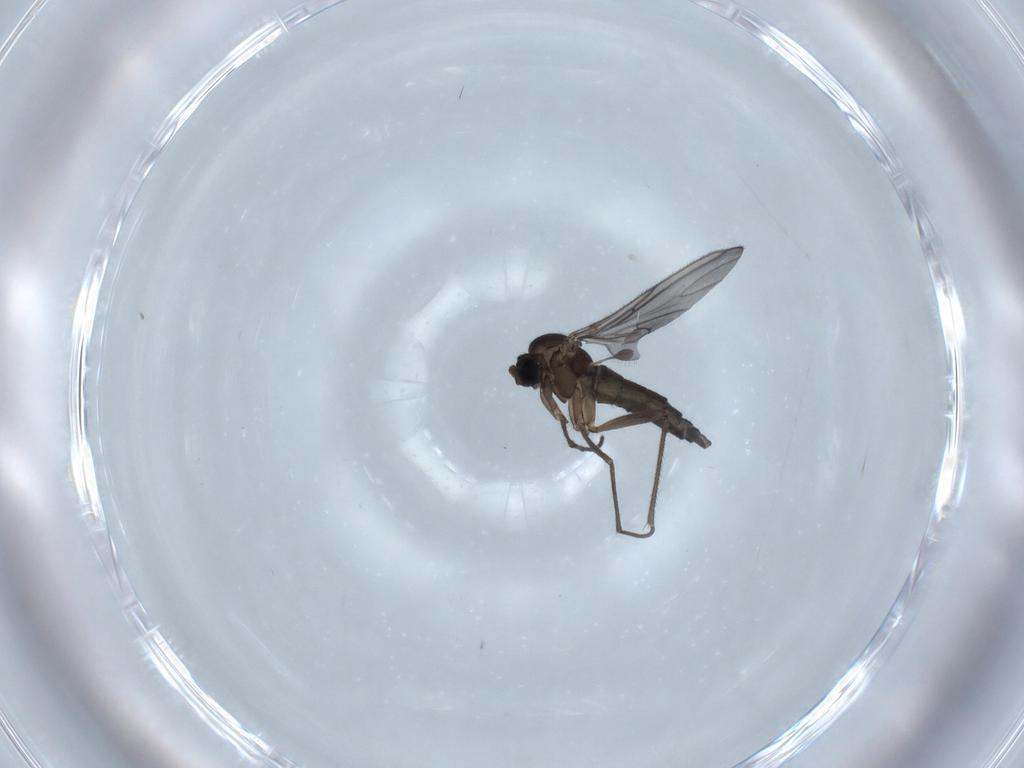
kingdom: Animalia
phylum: Arthropoda
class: Insecta
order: Diptera
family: Sciaridae
